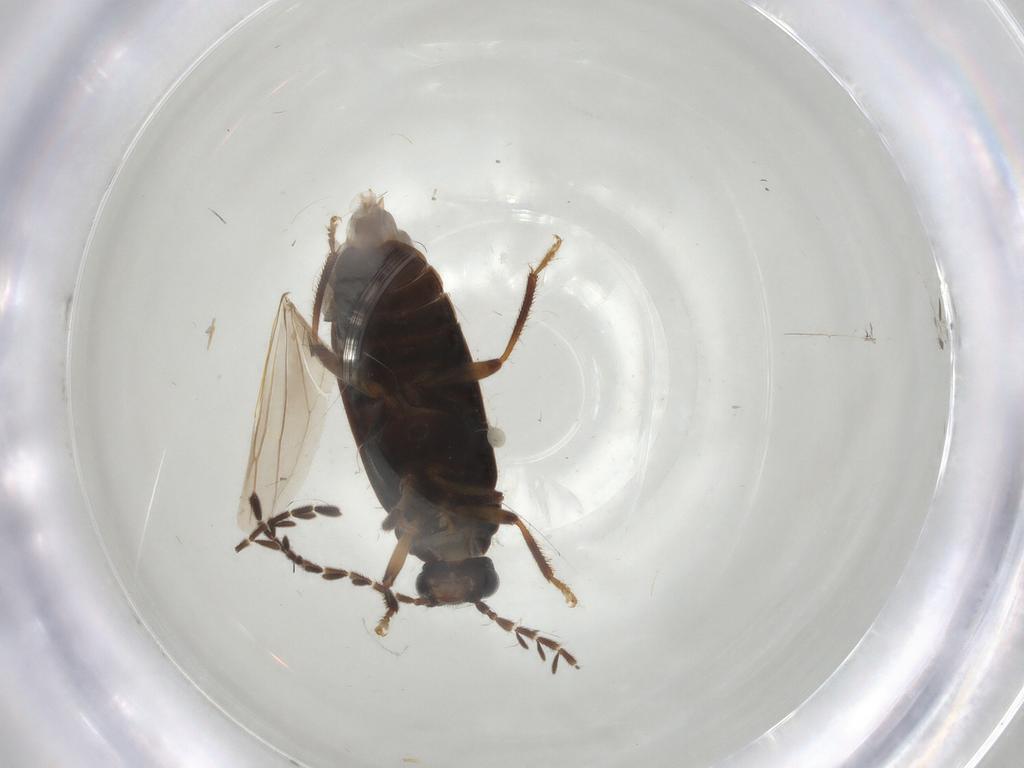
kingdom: Animalia
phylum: Arthropoda
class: Insecta
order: Coleoptera
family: Ptilodactylidae
